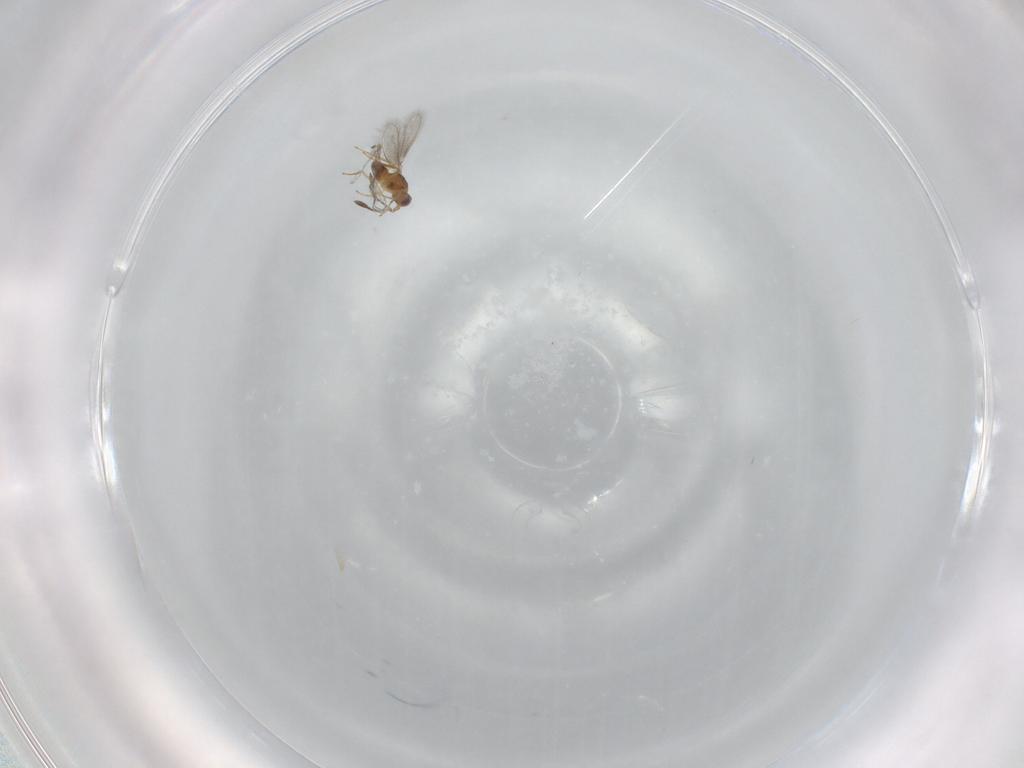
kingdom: Animalia
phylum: Arthropoda
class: Insecta
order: Hymenoptera
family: Mymaridae
